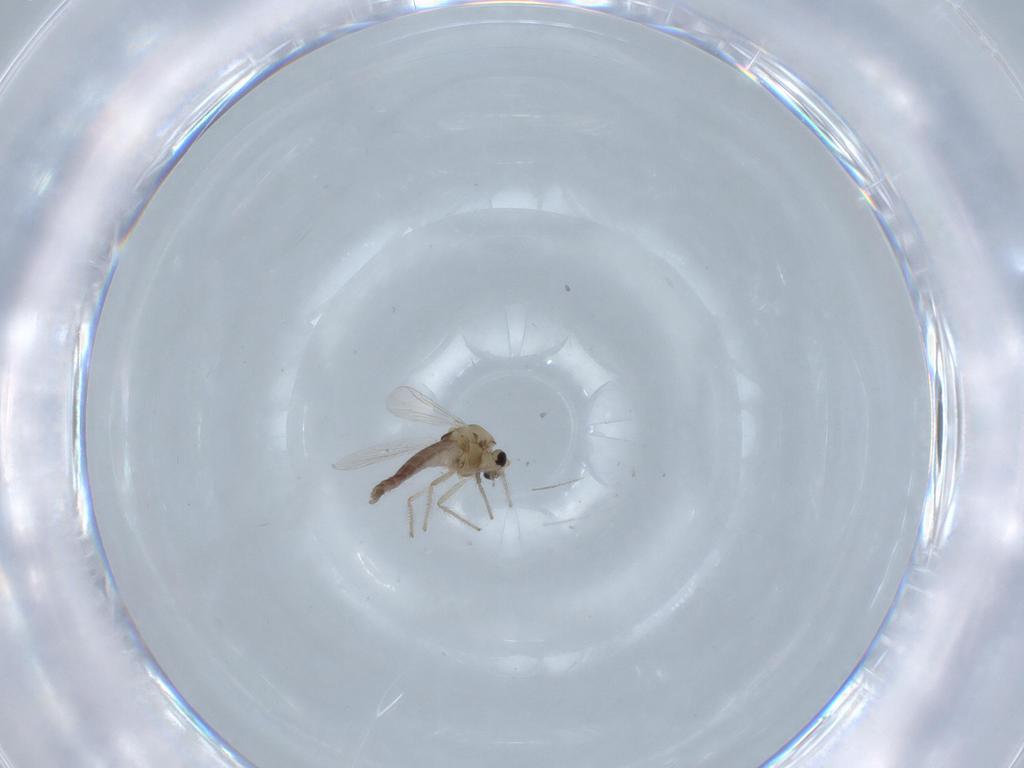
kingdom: Animalia
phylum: Arthropoda
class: Insecta
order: Diptera
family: Chironomidae
